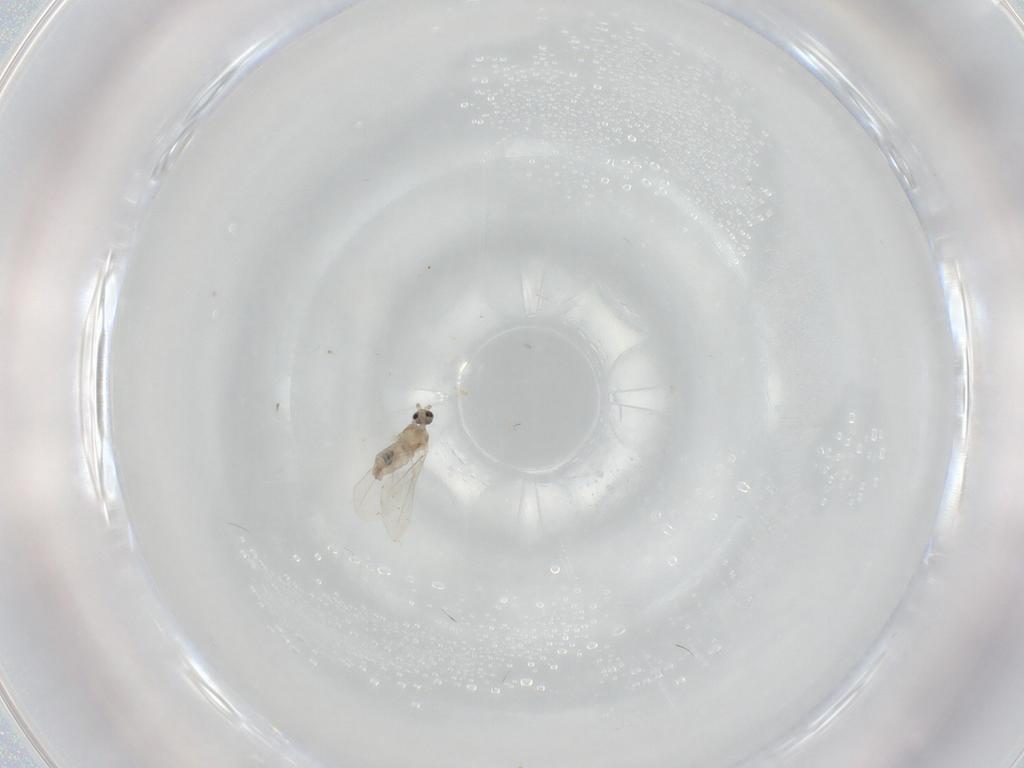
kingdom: Animalia
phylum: Arthropoda
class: Insecta
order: Diptera
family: Cecidomyiidae
